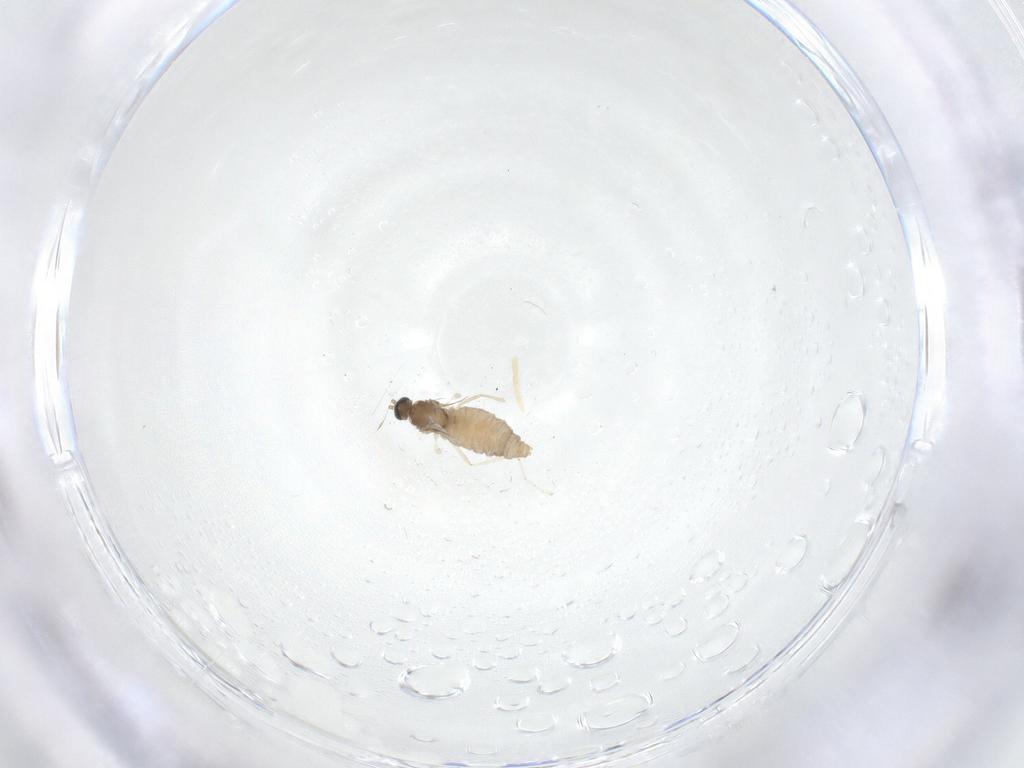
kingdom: Animalia
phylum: Arthropoda
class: Insecta
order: Diptera
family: Cecidomyiidae
